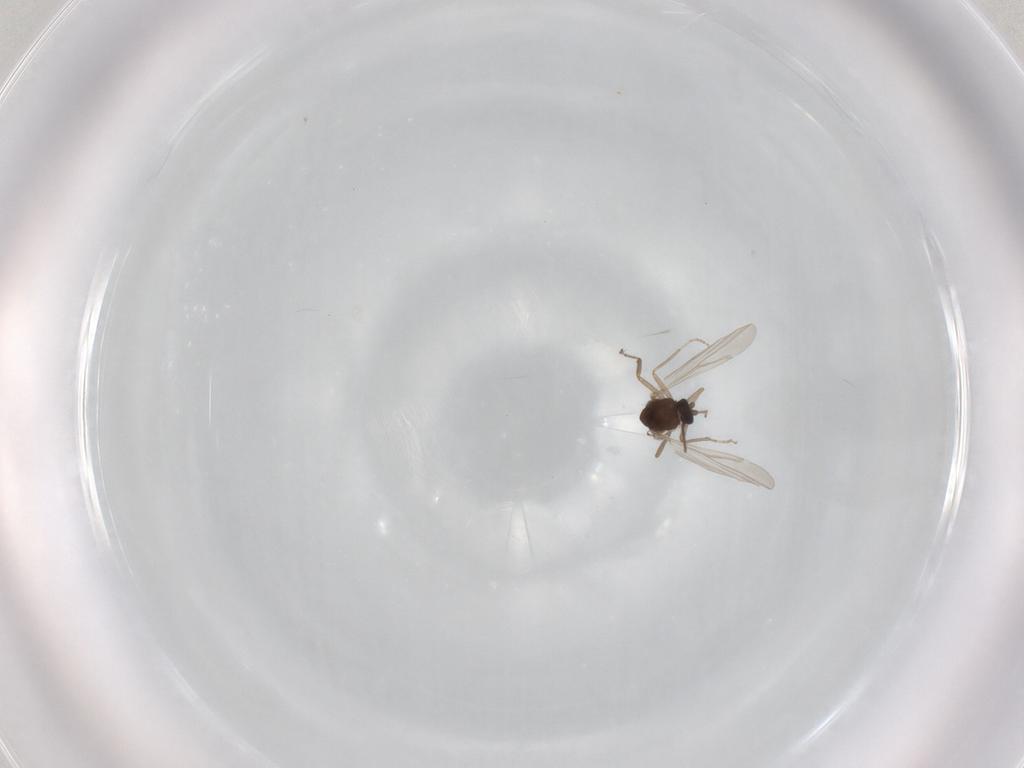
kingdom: Animalia
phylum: Arthropoda
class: Insecta
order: Diptera
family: Ceratopogonidae
